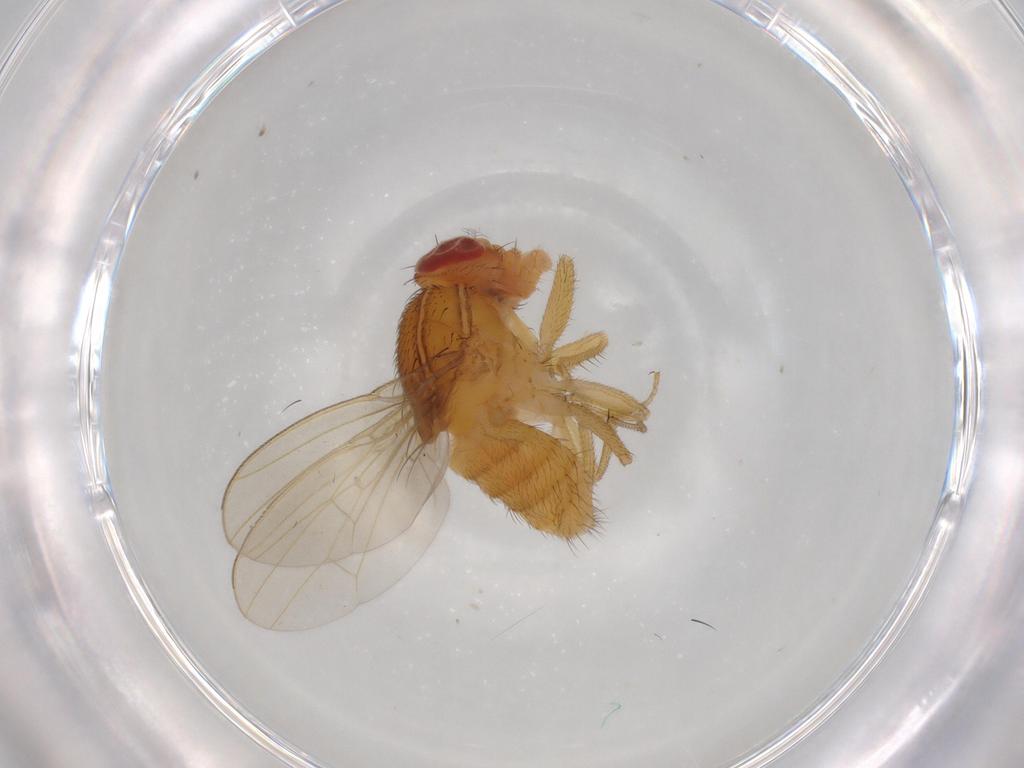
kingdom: Animalia
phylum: Arthropoda
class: Insecta
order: Diptera
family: Drosophilidae
